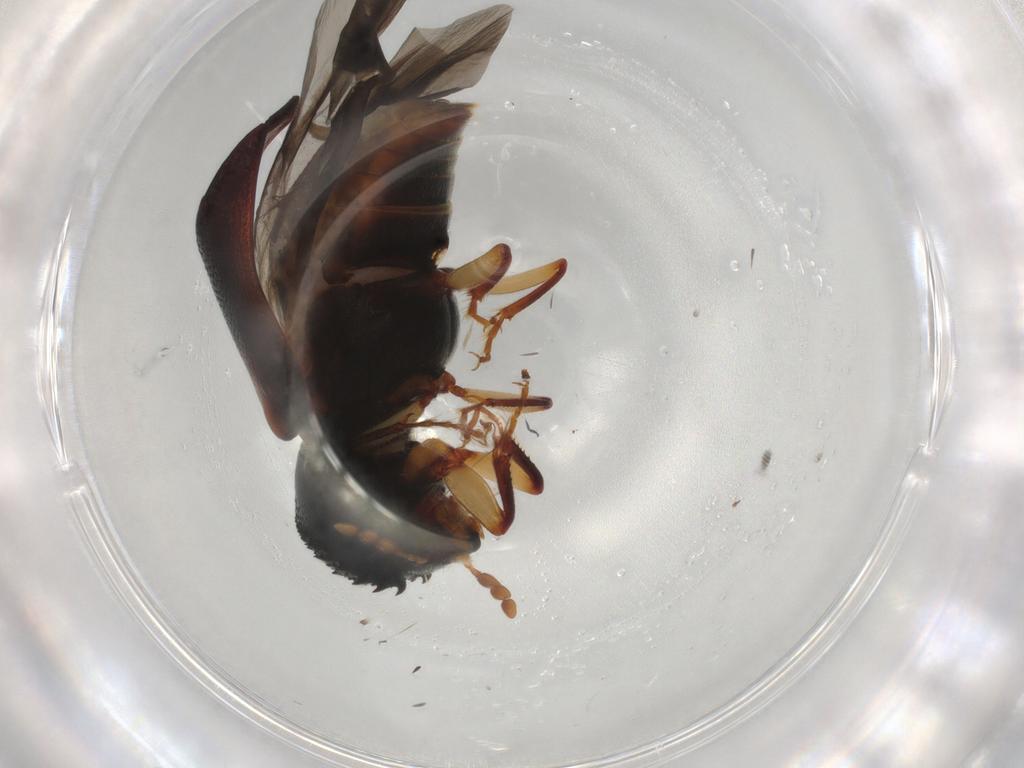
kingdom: Animalia
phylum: Arthropoda
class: Insecta
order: Coleoptera
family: Bostrichidae
